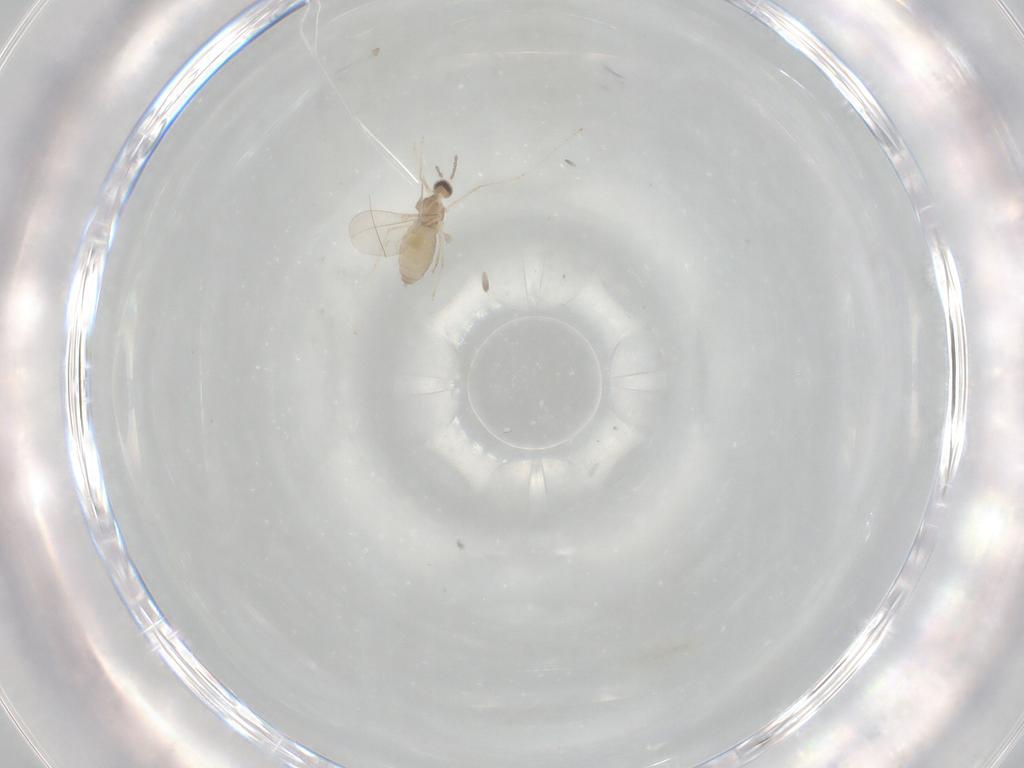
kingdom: Animalia
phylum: Arthropoda
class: Insecta
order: Diptera
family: Cecidomyiidae
